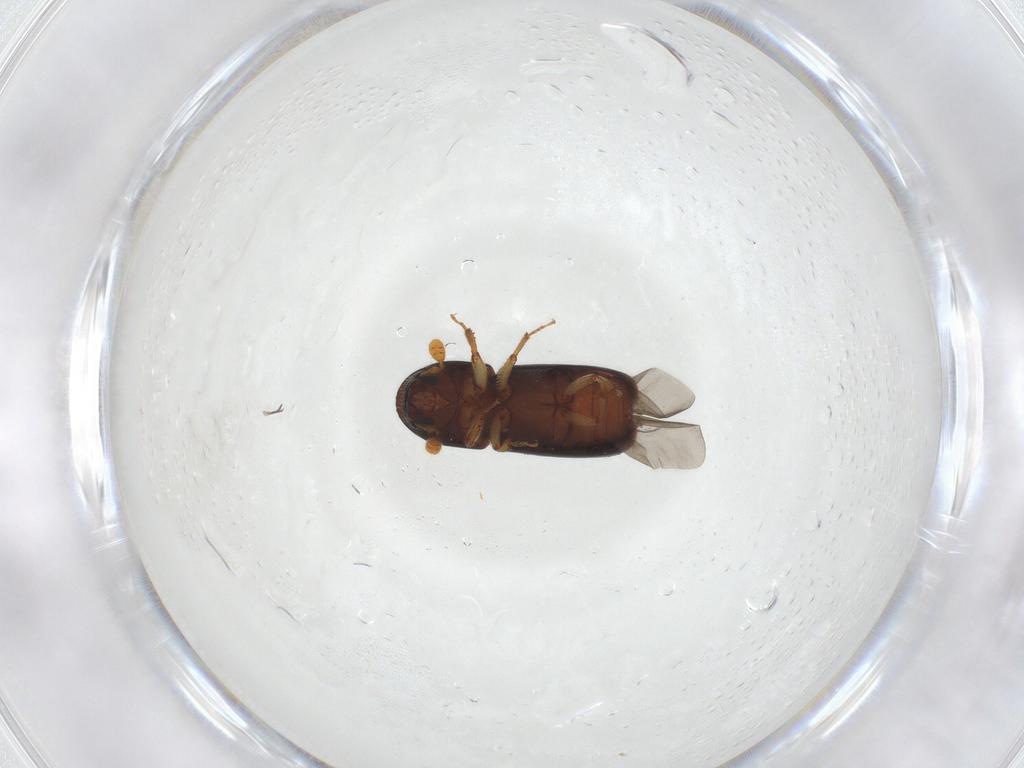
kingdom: Animalia
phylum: Arthropoda
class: Insecta
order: Coleoptera
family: Curculionidae
